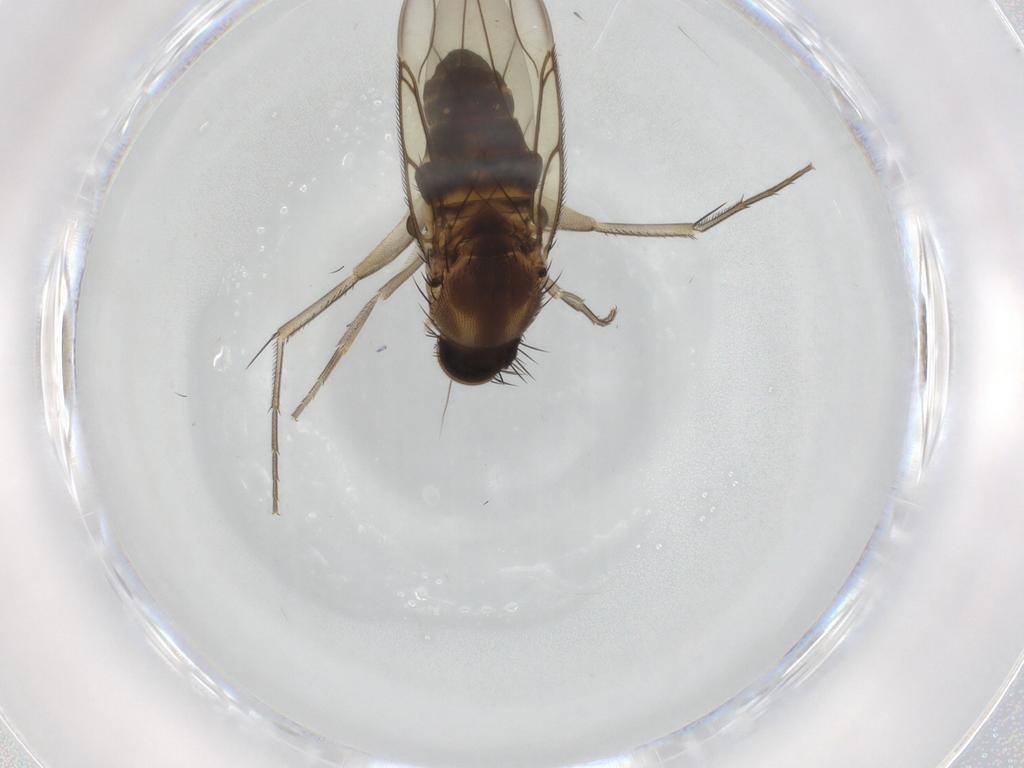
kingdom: Animalia
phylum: Arthropoda
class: Insecta
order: Diptera
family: Phoridae
